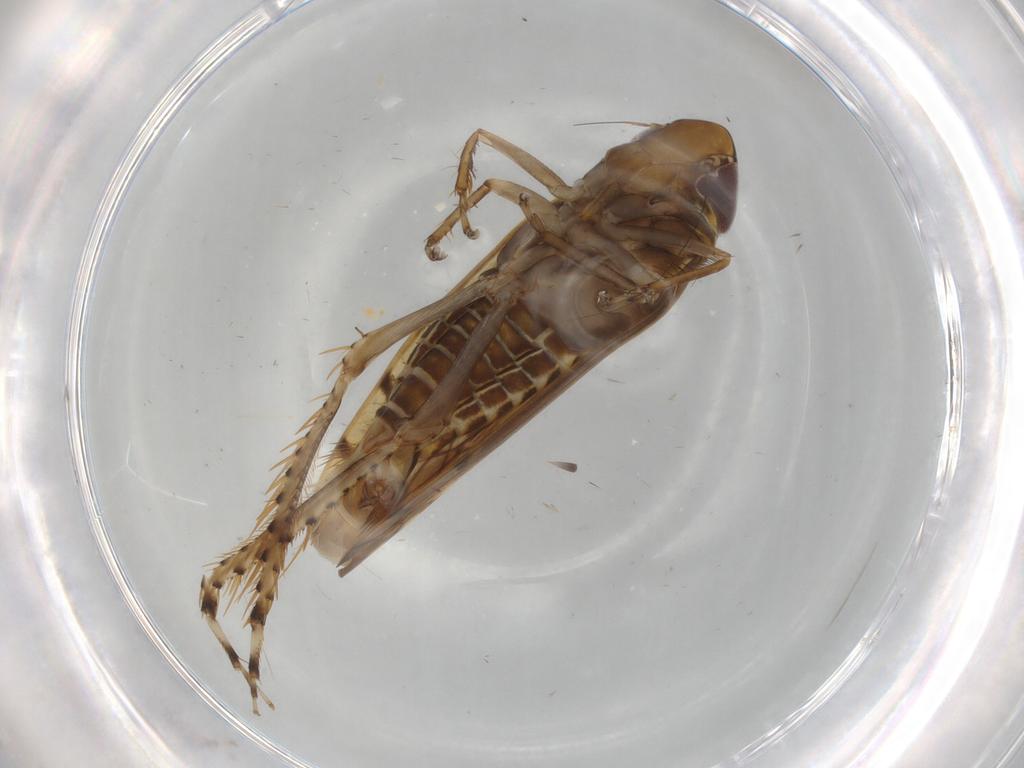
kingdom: Animalia
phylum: Arthropoda
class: Insecta
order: Hemiptera
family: Cicadellidae
